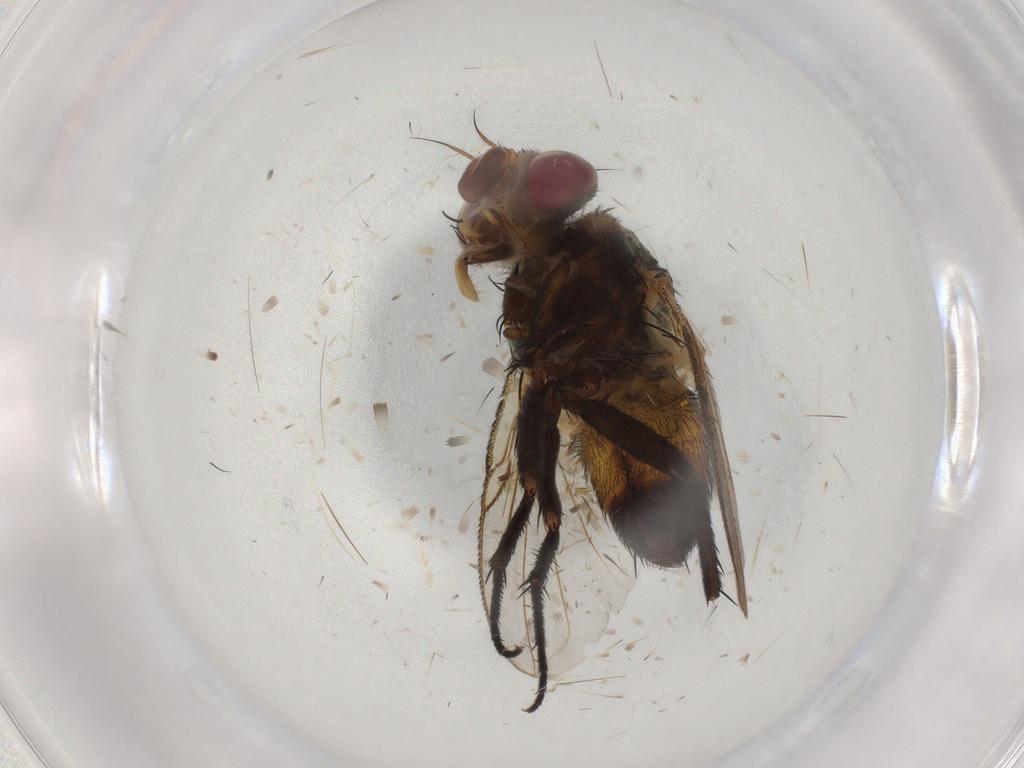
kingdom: Animalia
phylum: Arthropoda
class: Insecta
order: Diptera
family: Glossinidae
